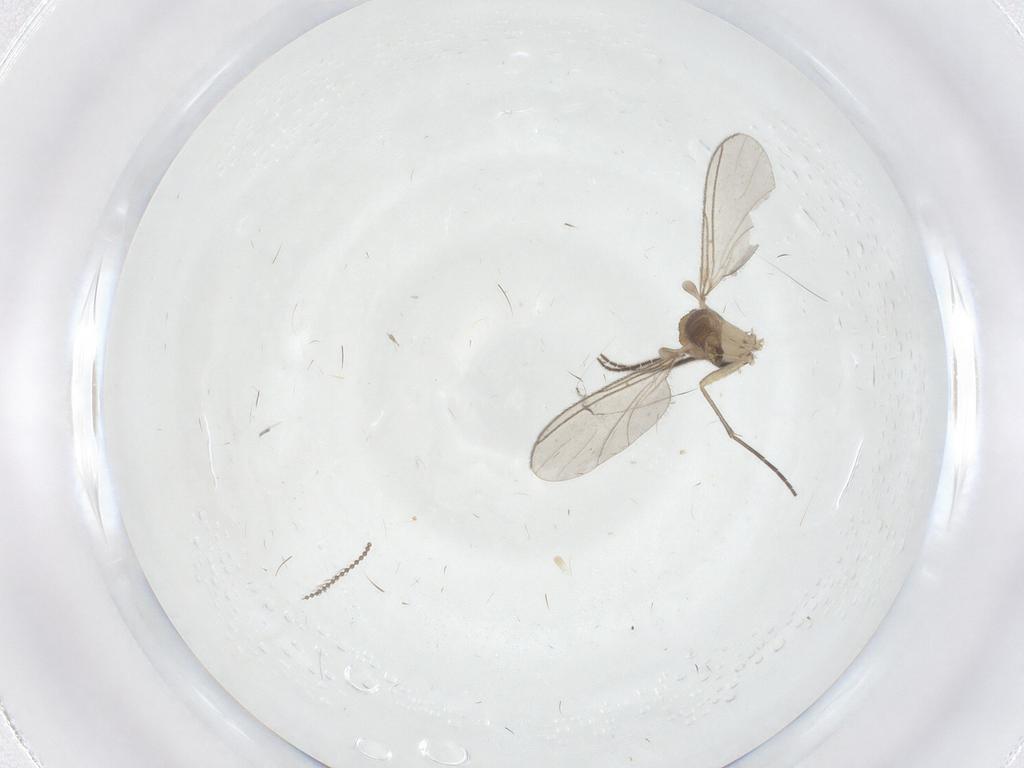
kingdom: Animalia
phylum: Arthropoda
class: Insecta
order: Diptera
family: Sciaridae
